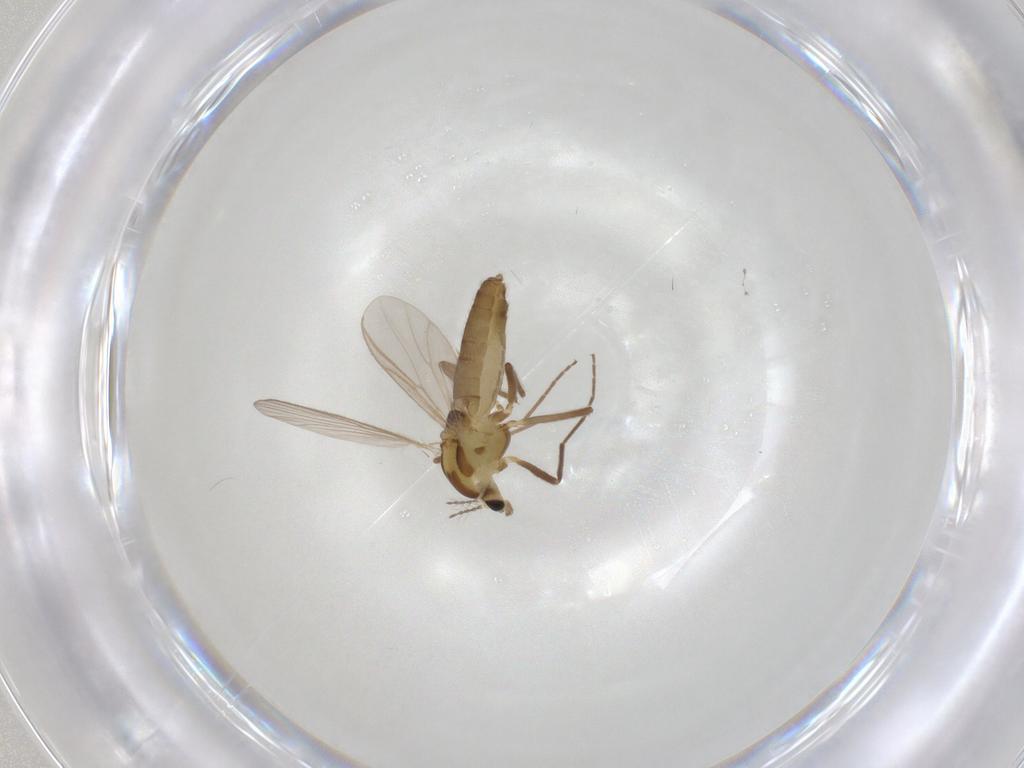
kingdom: Animalia
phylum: Arthropoda
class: Insecta
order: Diptera
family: Chironomidae
